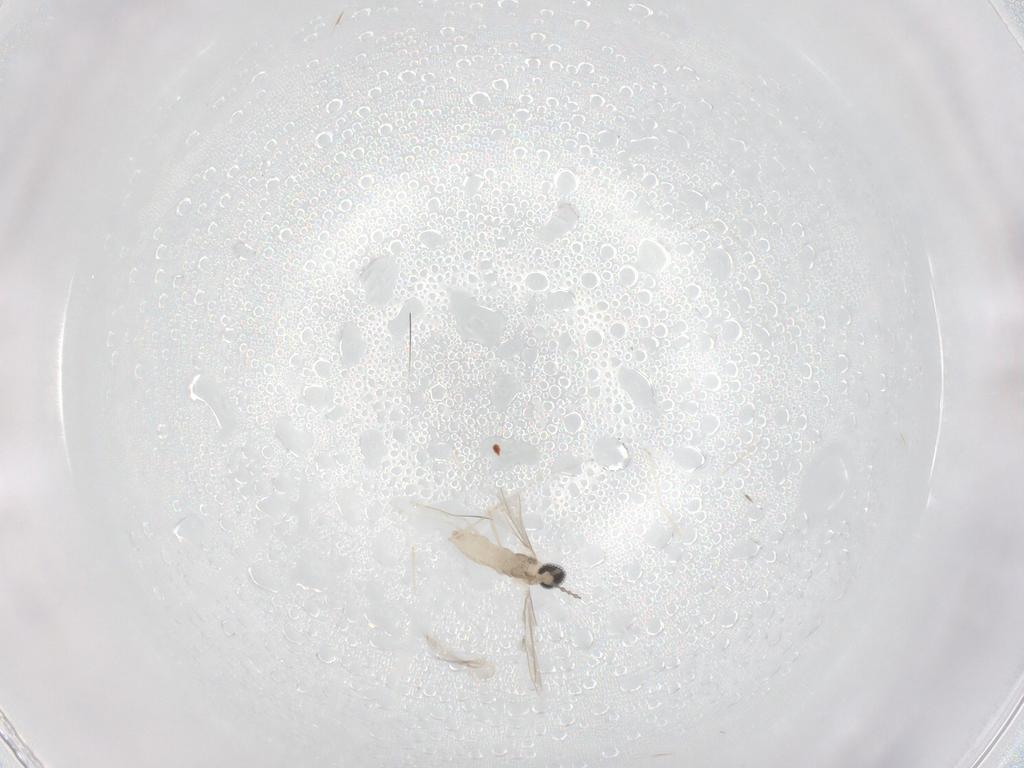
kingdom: Animalia
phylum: Arthropoda
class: Insecta
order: Diptera
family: Cecidomyiidae
